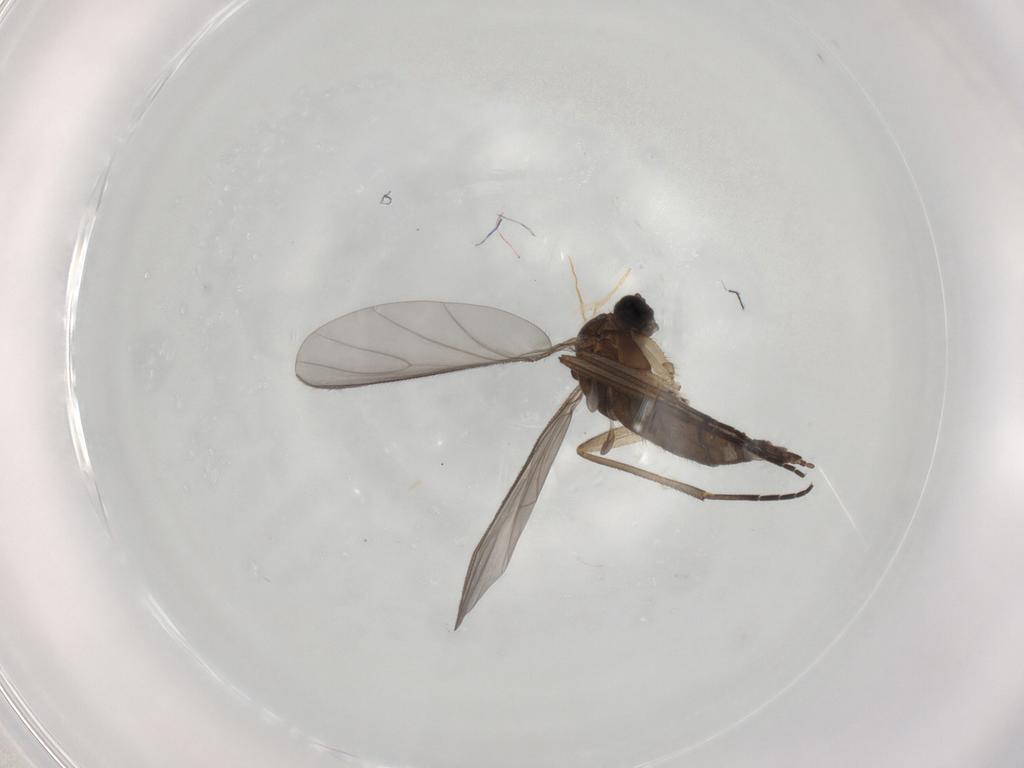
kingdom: Animalia
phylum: Arthropoda
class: Insecta
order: Diptera
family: Sciaridae
